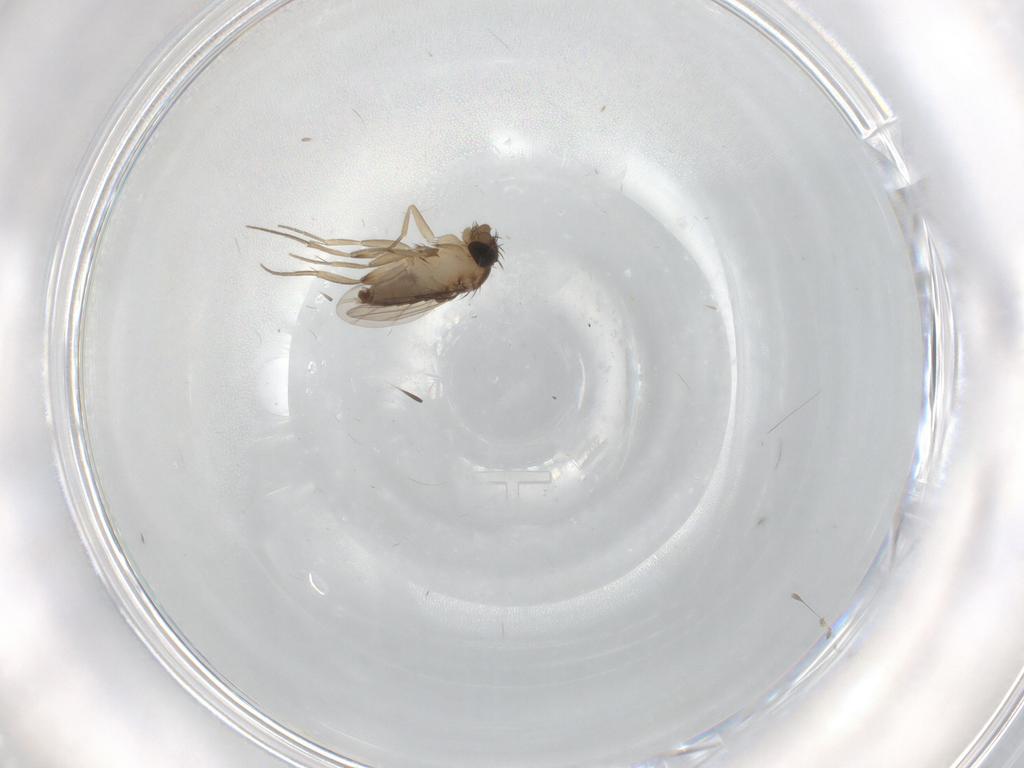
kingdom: Animalia
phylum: Arthropoda
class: Insecta
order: Diptera
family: Phoridae
